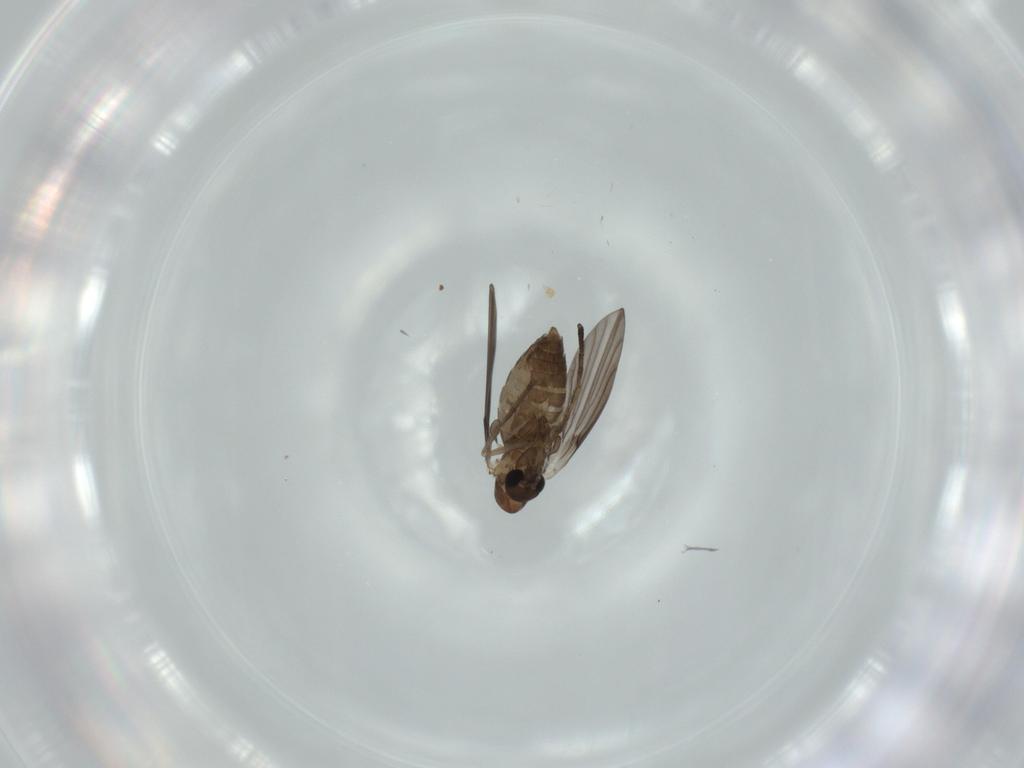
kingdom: Animalia
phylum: Arthropoda
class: Insecta
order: Diptera
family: Psychodidae
